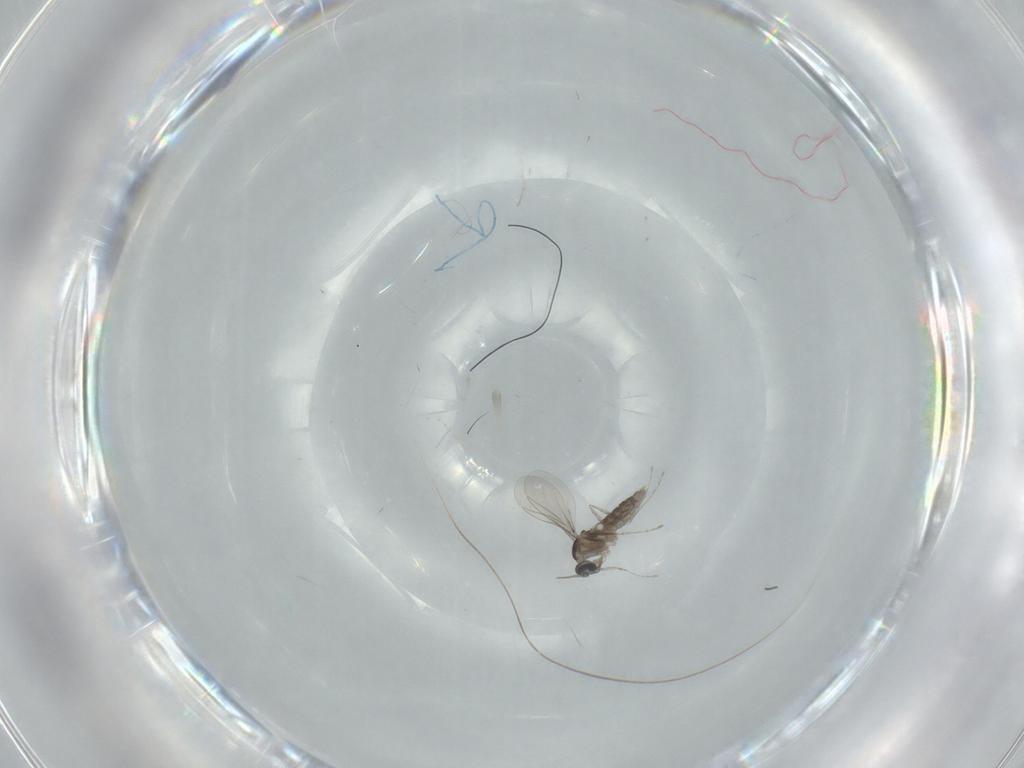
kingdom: Animalia
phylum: Arthropoda
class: Insecta
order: Diptera
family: Cecidomyiidae
